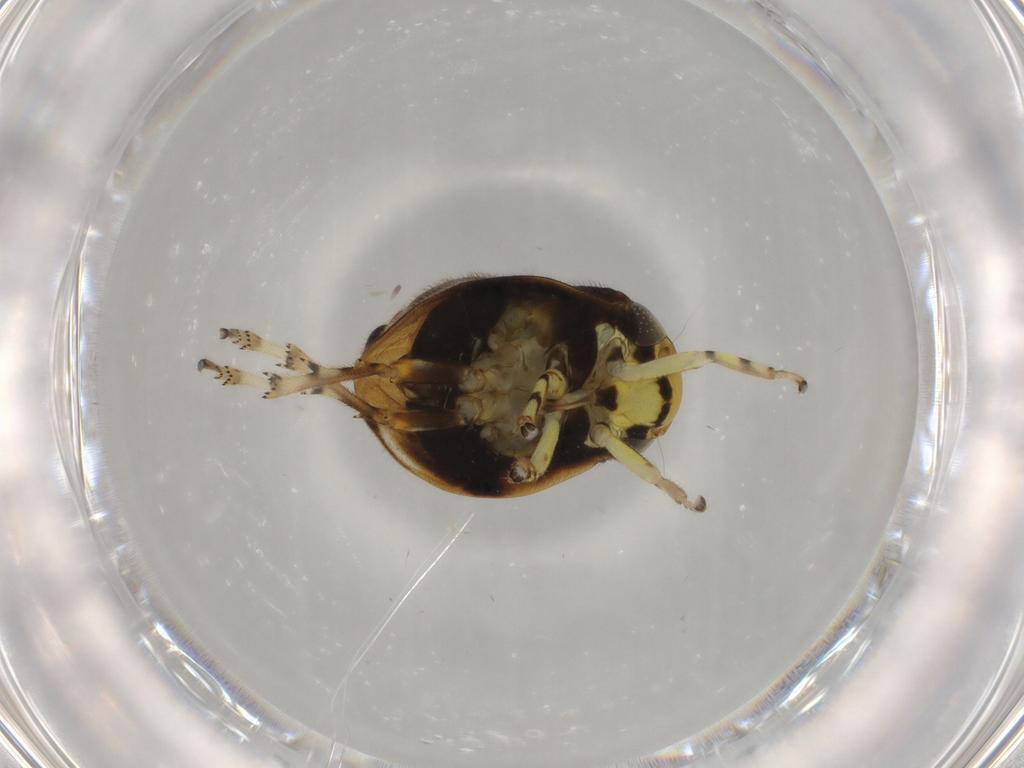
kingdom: Animalia
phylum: Arthropoda
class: Insecta
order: Hemiptera
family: Clastopteridae
